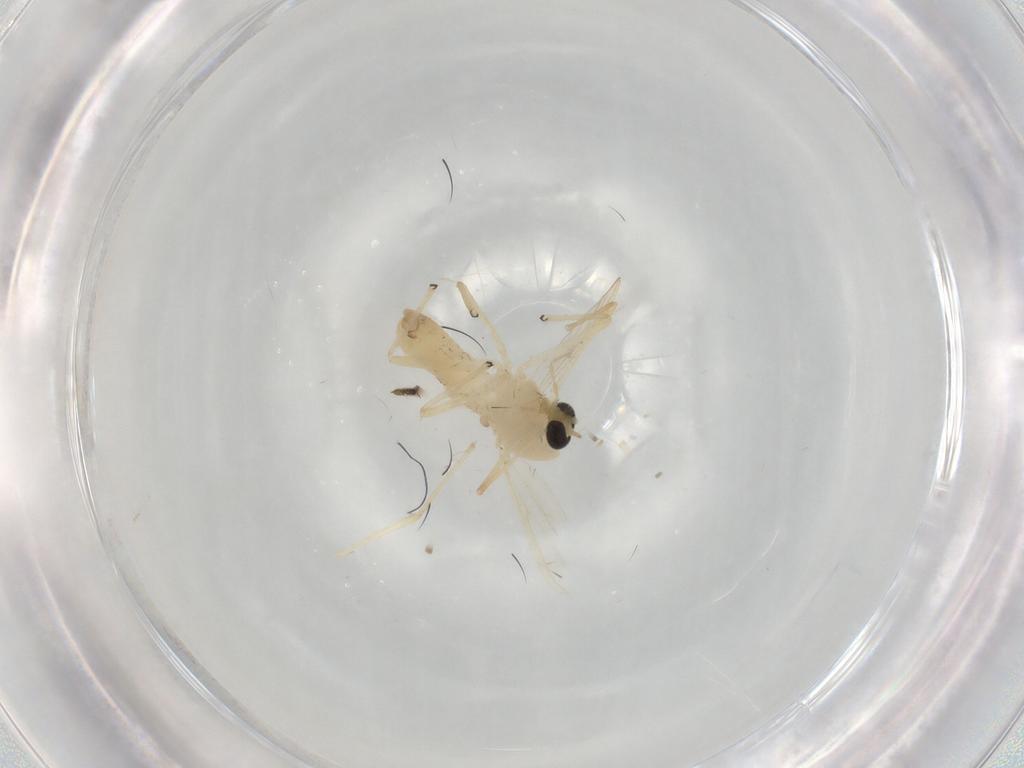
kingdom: Animalia
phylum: Arthropoda
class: Insecta
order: Diptera
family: Chironomidae
